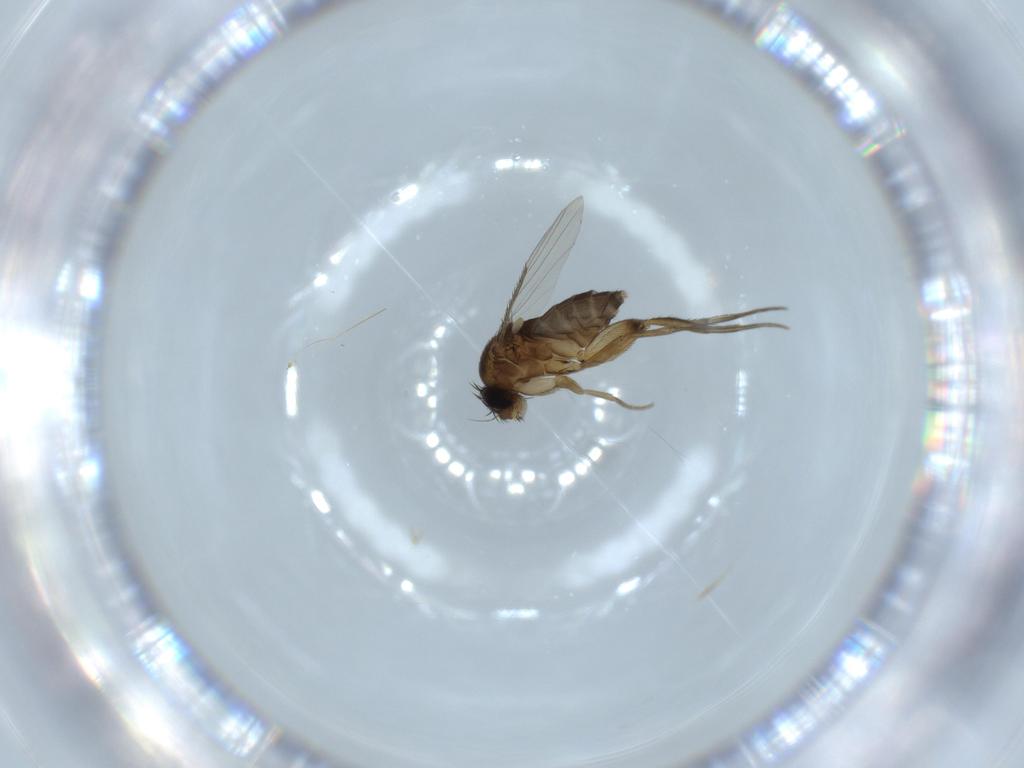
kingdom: Animalia
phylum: Arthropoda
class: Insecta
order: Diptera
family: Phoridae
